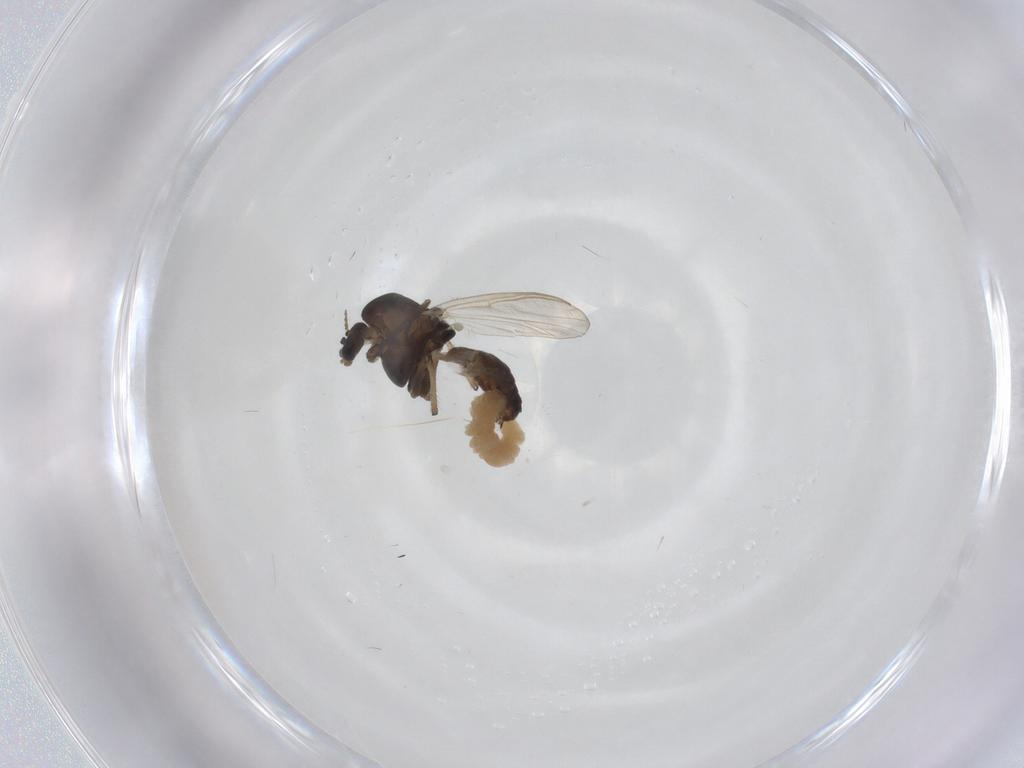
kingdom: Animalia
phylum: Arthropoda
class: Insecta
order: Diptera
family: Chironomidae
